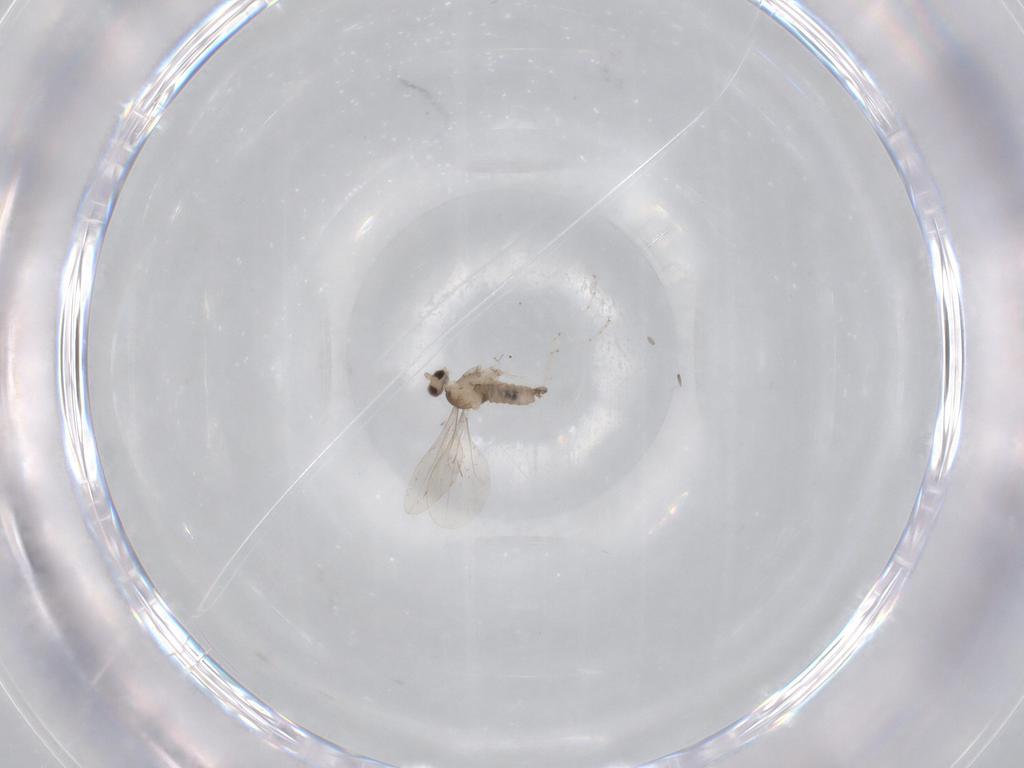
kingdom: Animalia
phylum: Arthropoda
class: Insecta
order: Diptera
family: Cecidomyiidae
